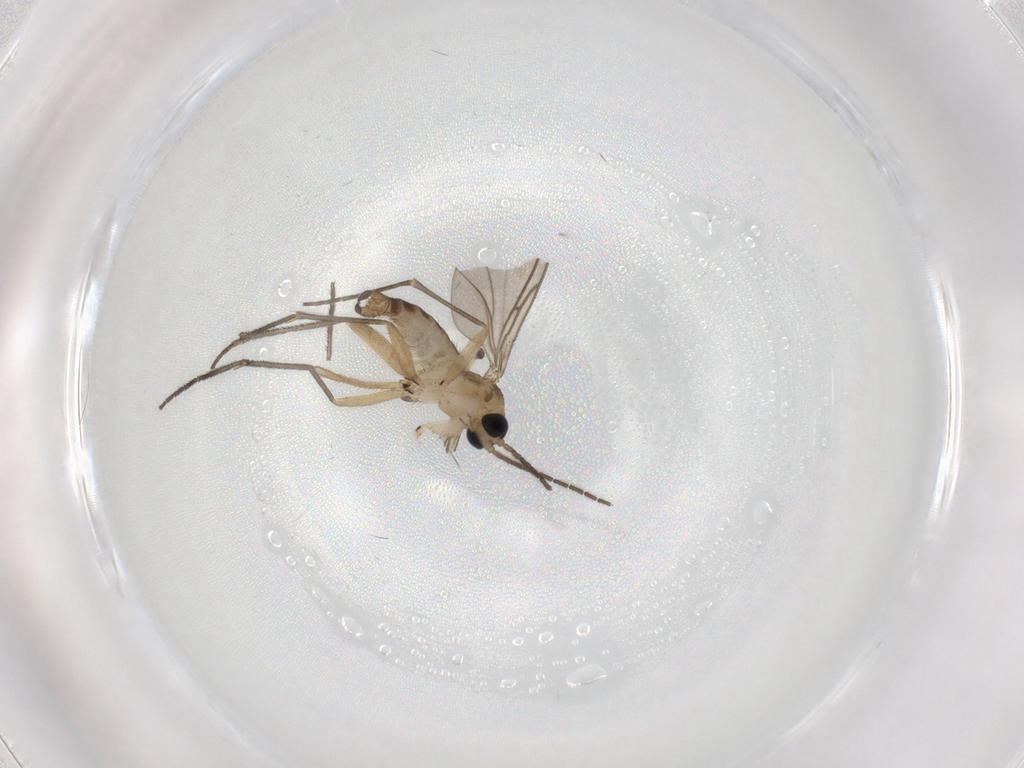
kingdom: Animalia
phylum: Arthropoda
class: Insecta
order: Diptera
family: Sciaridae
